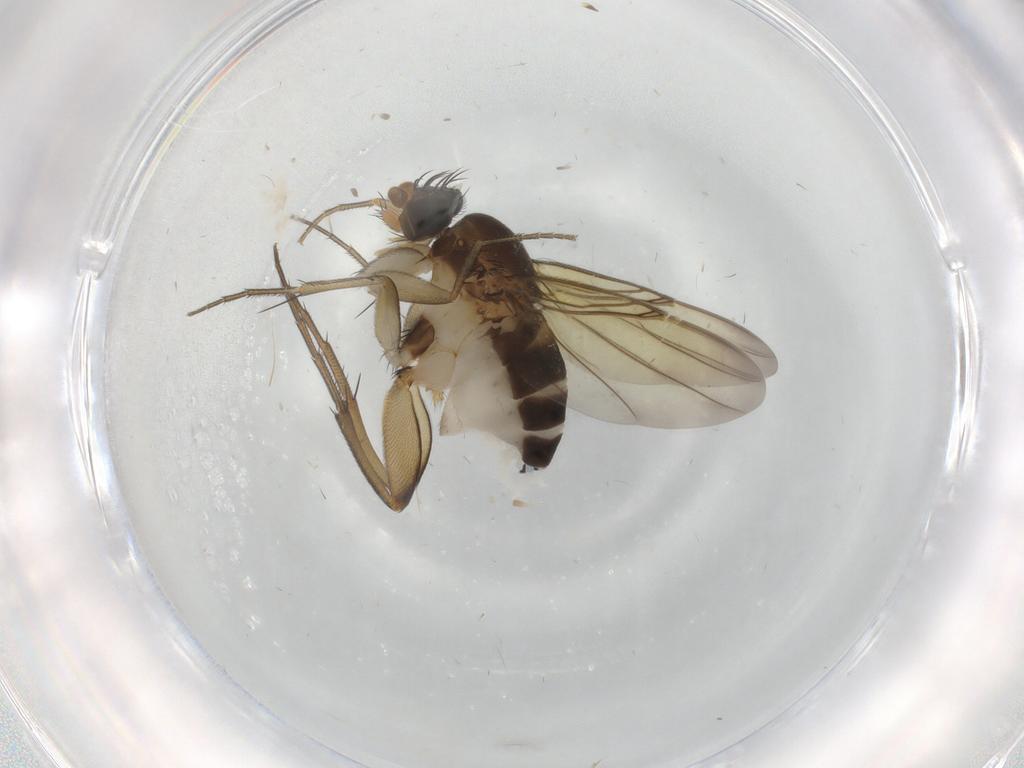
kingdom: Animalia
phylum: Arthropoda
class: Insecta
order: Diptera
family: Phoridae
